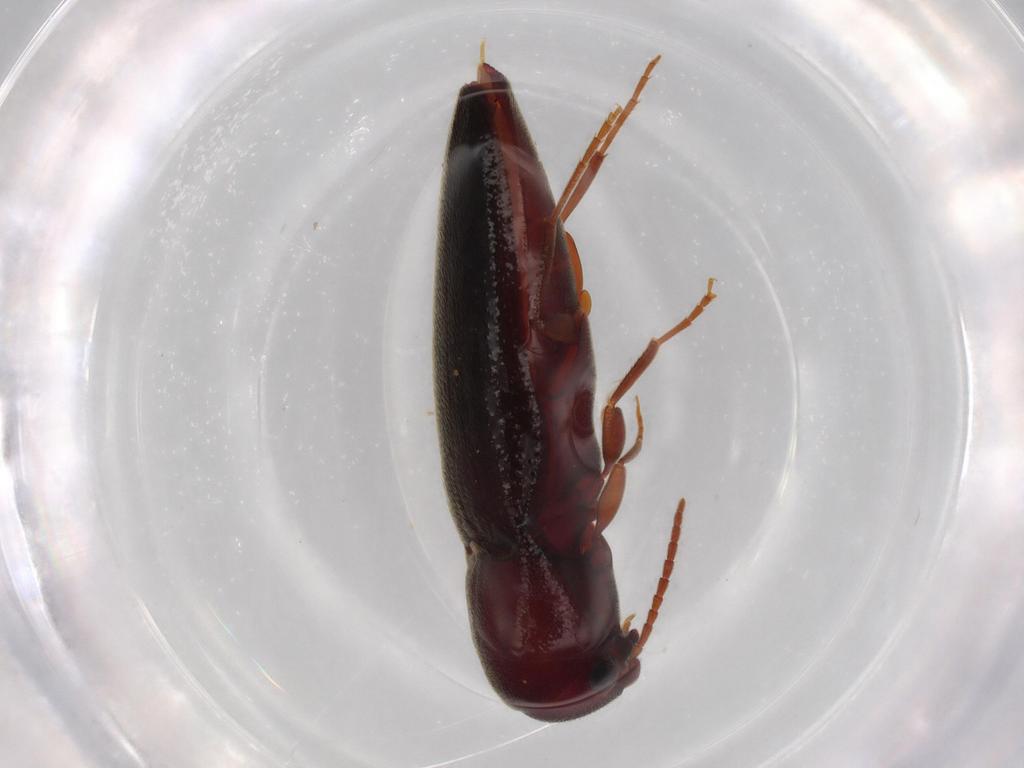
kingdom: Animalia
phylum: Arthropoda
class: Insecta
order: Coleoptera
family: Eucnemidae
